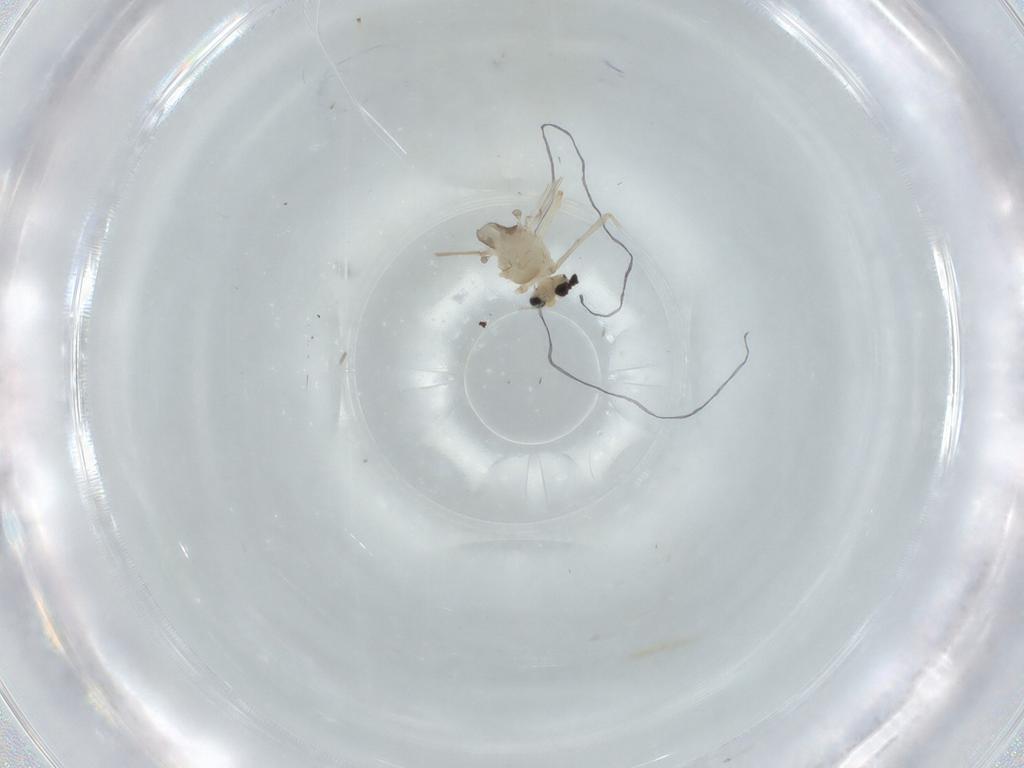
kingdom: Animalia
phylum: Arthropoda
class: Insecta
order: Diptera
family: Chironomidae
